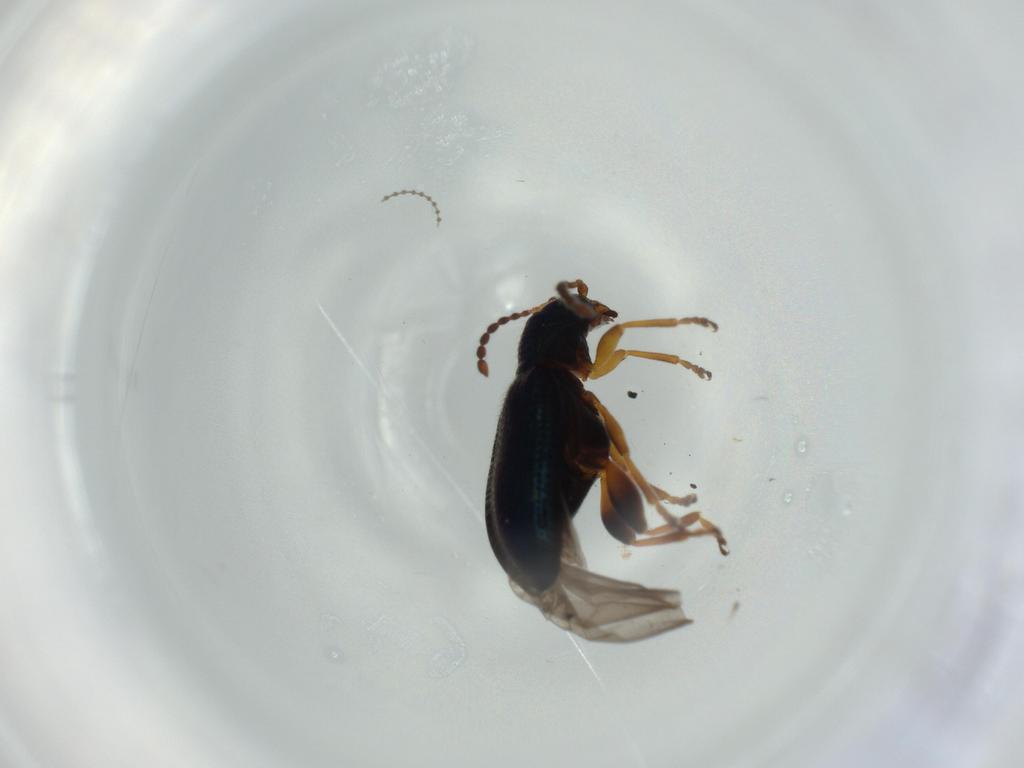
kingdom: Animalia
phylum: Arthropoda
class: Insecta
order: Coleoptera
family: Chrysomelidae
